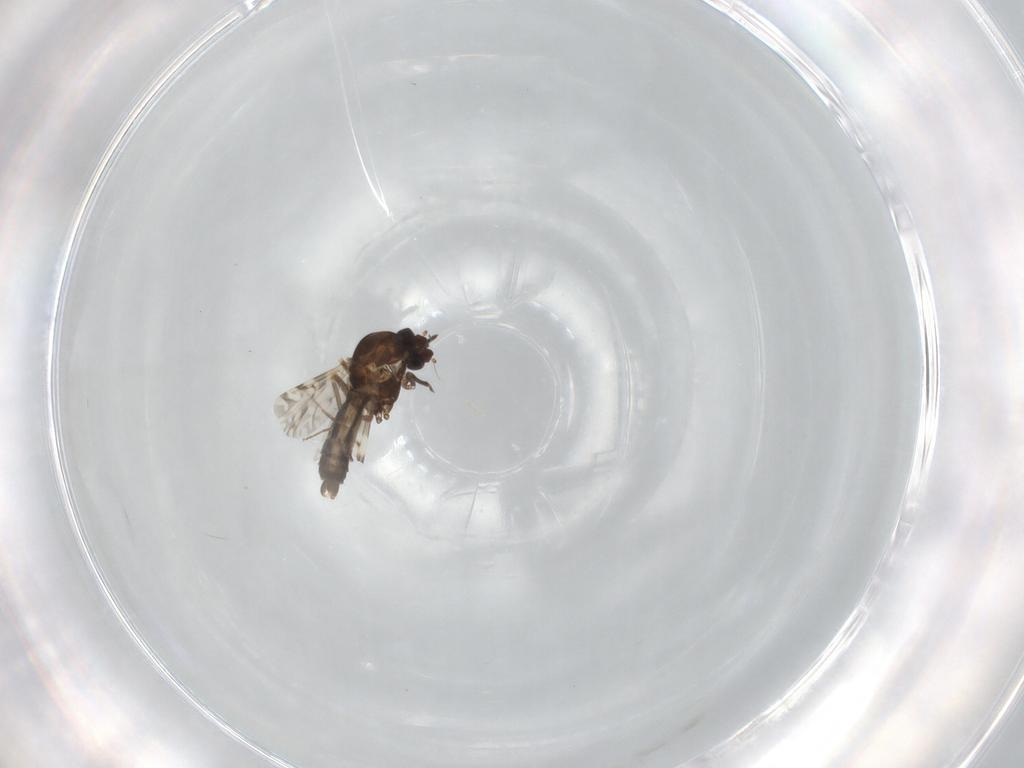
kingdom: Animalia
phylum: Arthropoda
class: Insecta
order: Diptera
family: Ceratopogonidae
